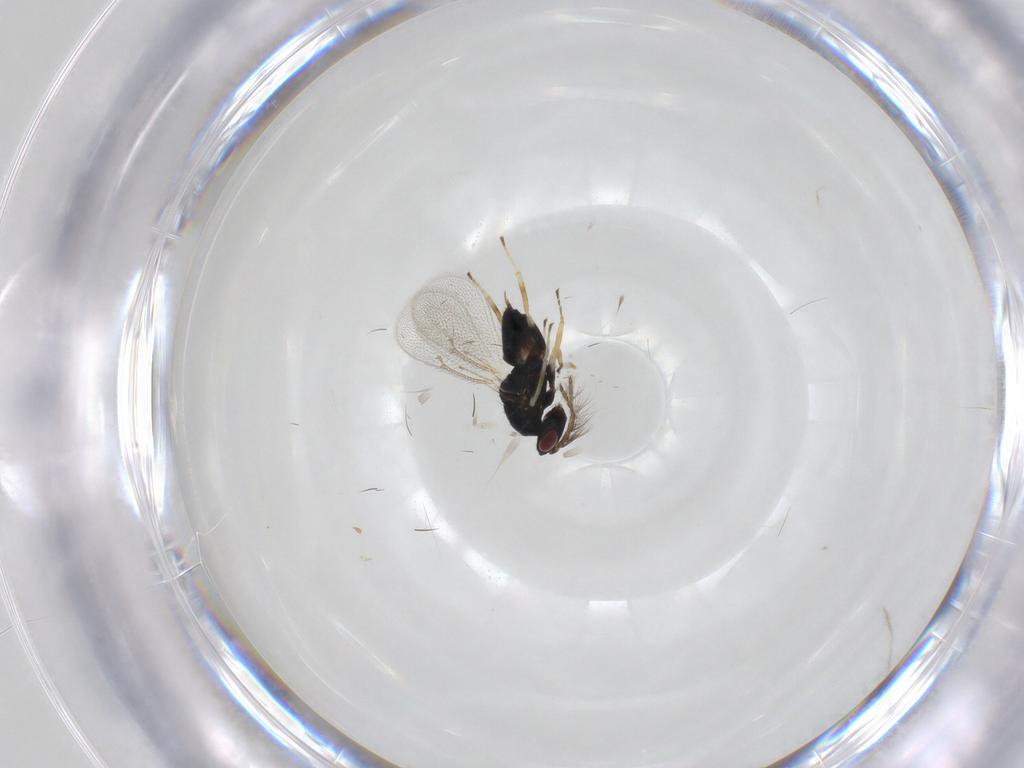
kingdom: Animalia
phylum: Arthropoda
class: Insecta
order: Hymenoptera
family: Eulophidae
